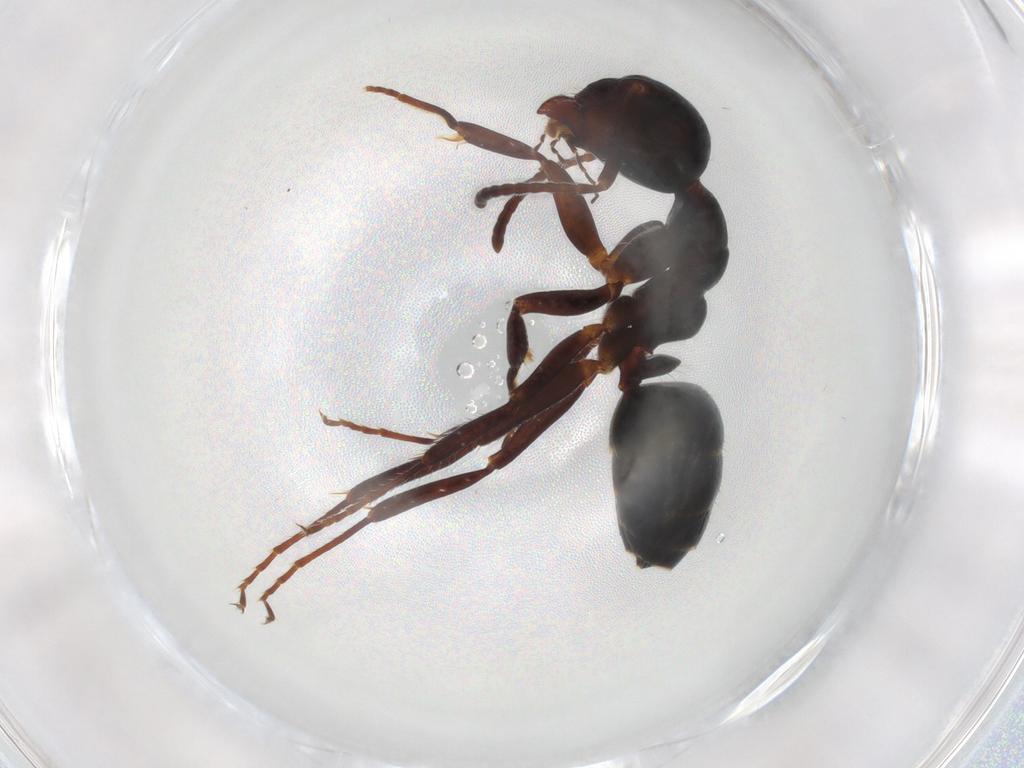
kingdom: Animalia
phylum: Arthropoda
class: Insecta
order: Hymenoptera
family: Formicidae
